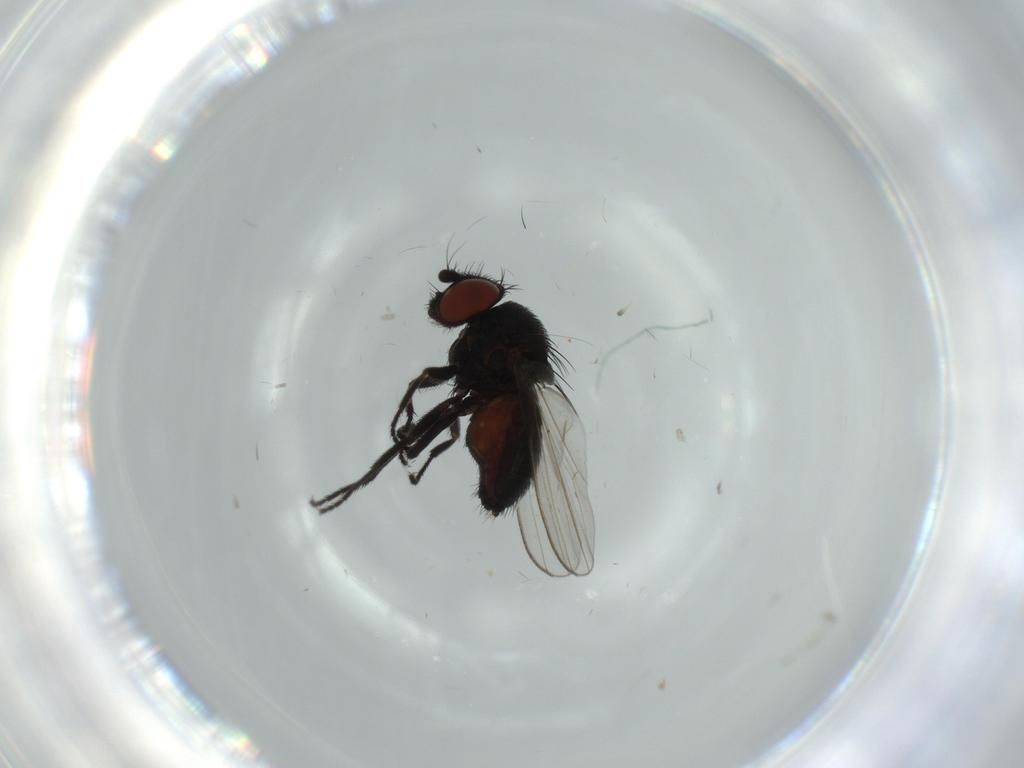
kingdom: Animalia
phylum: Arthropoda
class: Insecta
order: Diptera
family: Milichiidae
